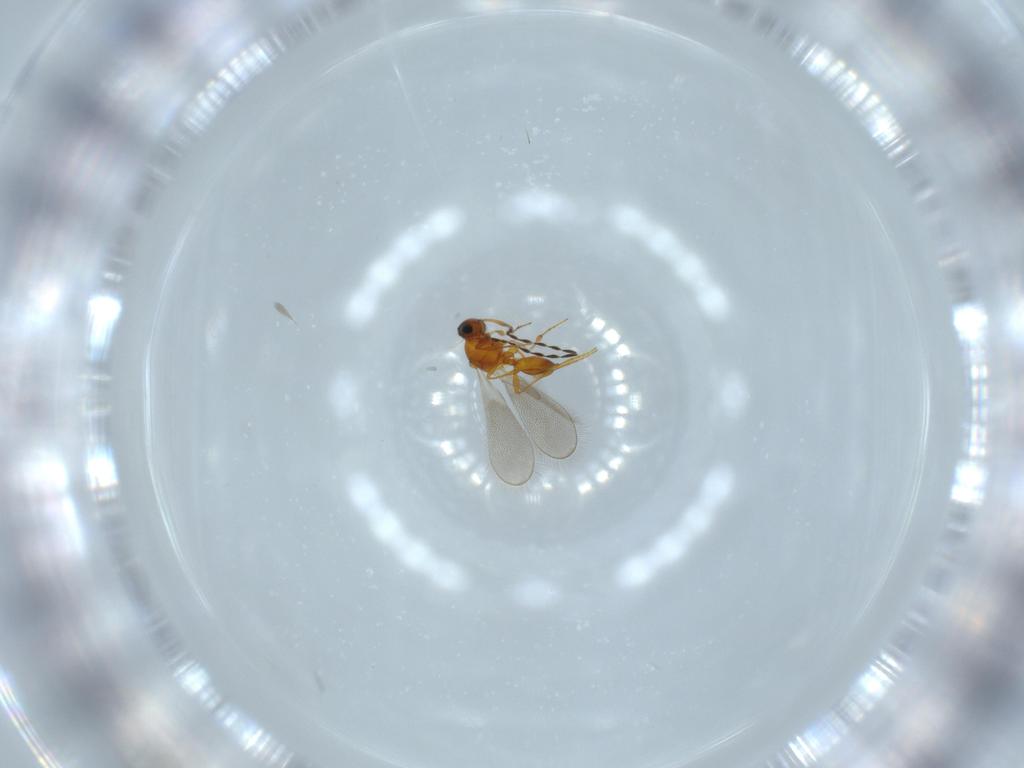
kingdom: Animalia
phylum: Arthropoda
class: Insecta
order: Hymenoptera
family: Platygastridae
